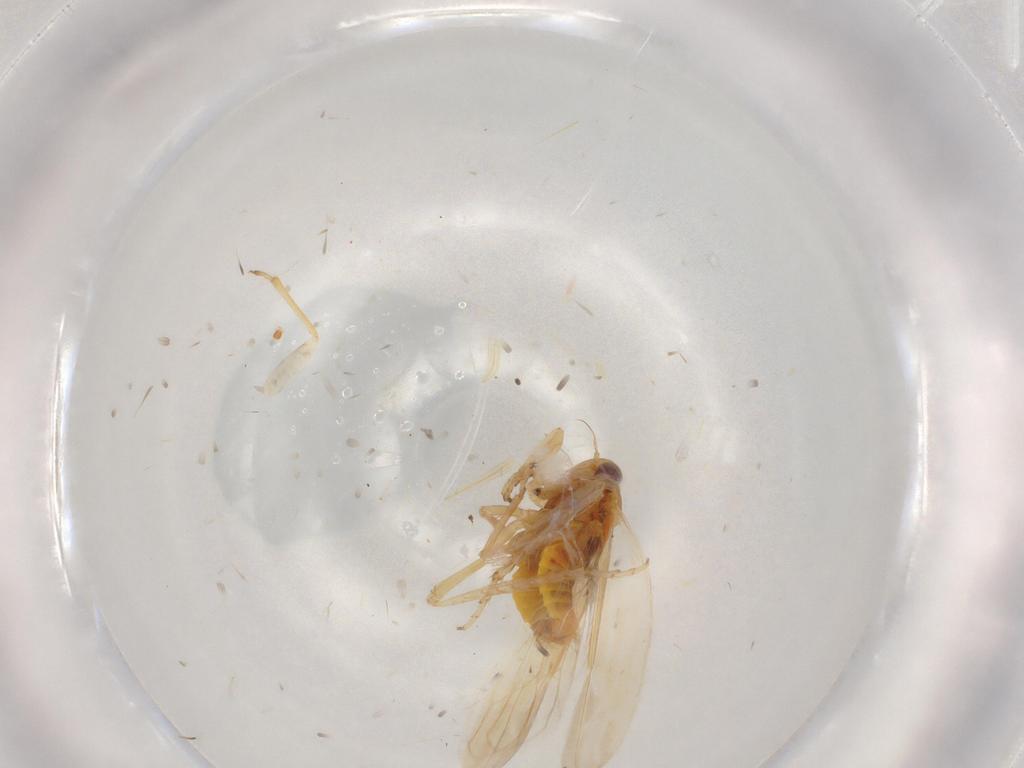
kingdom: Animalia
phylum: Arthropoda
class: Insecta
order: Hemiptera
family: Cicadellidae
